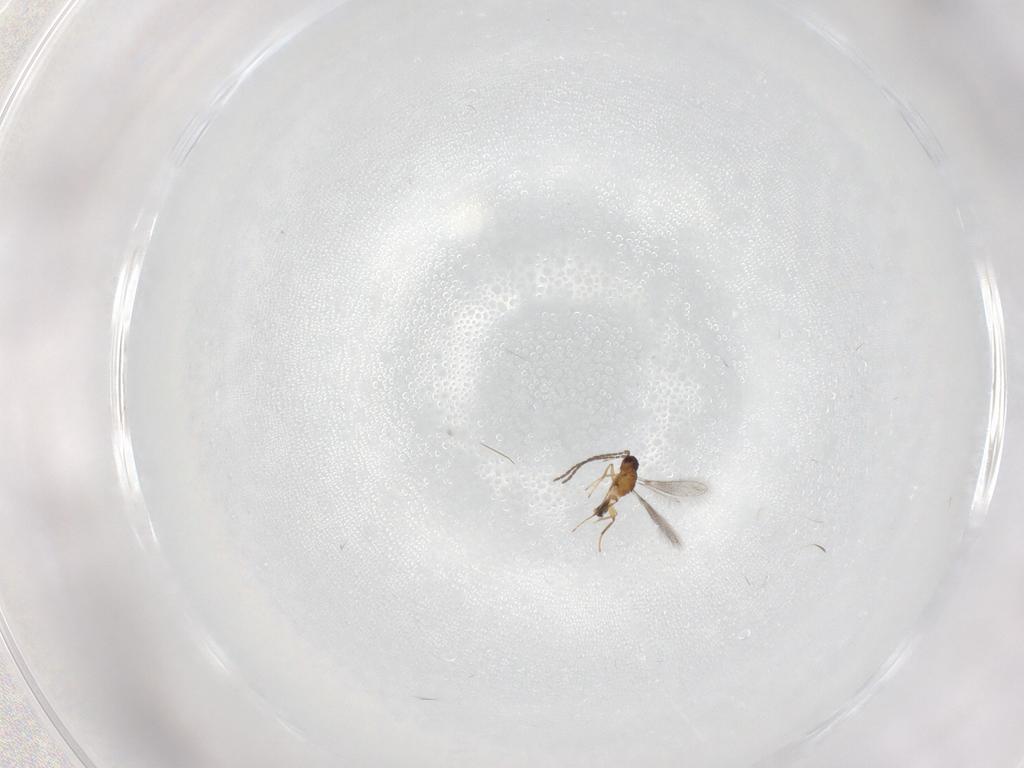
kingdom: Animalia
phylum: Arthropoda
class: Insecta
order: Hymenoptera
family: Mymaridae
